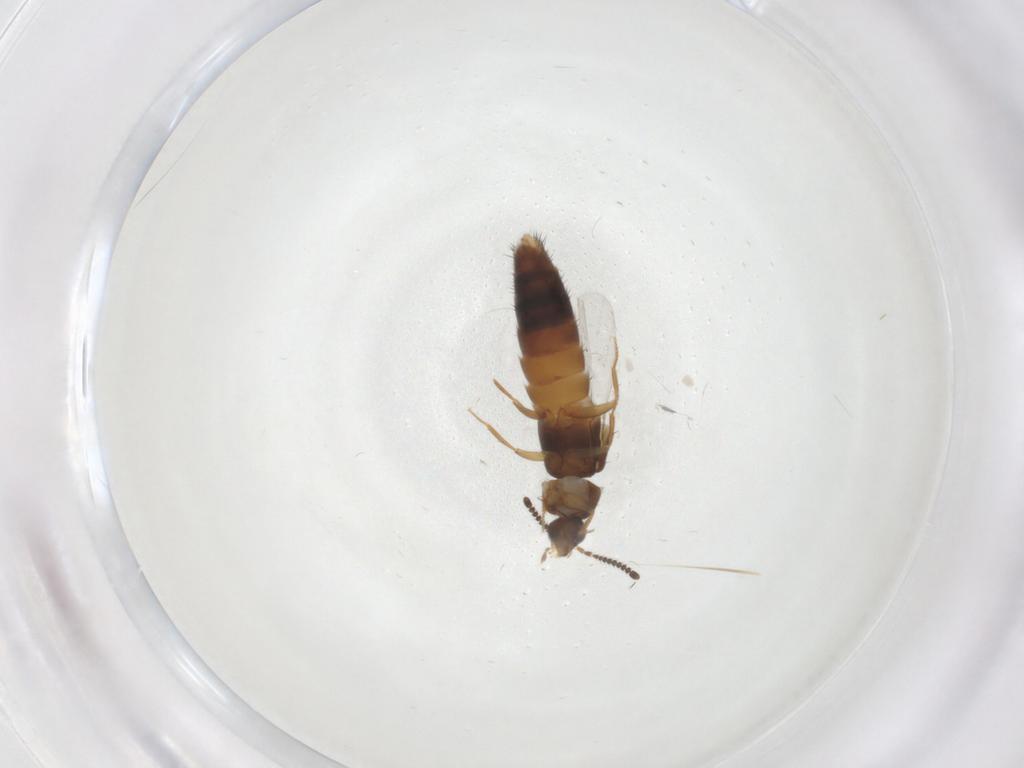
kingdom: Animalia
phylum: Arthropoda
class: Insecta
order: Coleoptera
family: Staphylinidae
